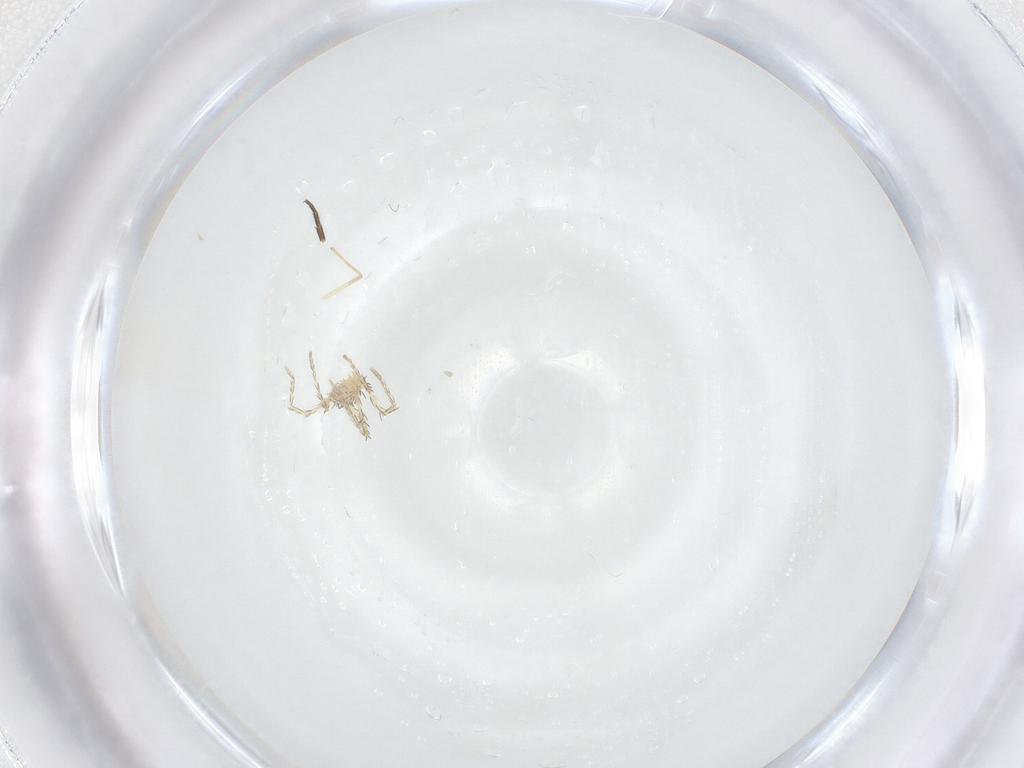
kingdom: Animalia
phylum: Arthropoda
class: Insecta
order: Diptera
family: Chironomidae
